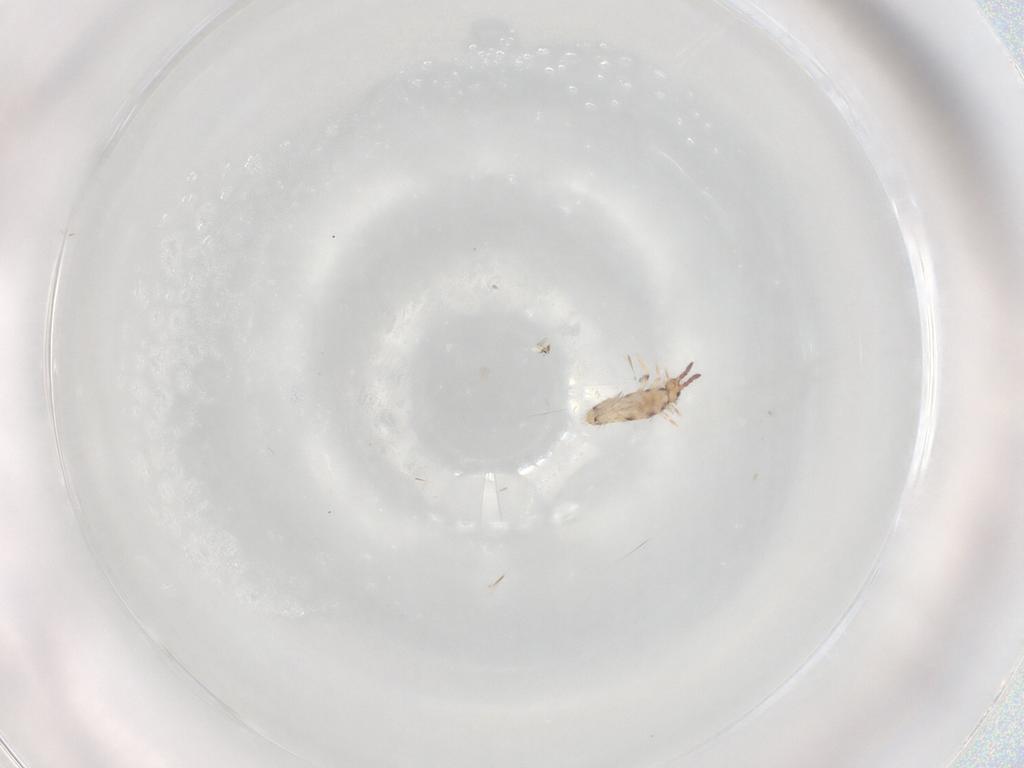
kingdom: Animalia
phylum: Arthropoda
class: Collembola
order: Entomobryomorpha
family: Entomobryidae
